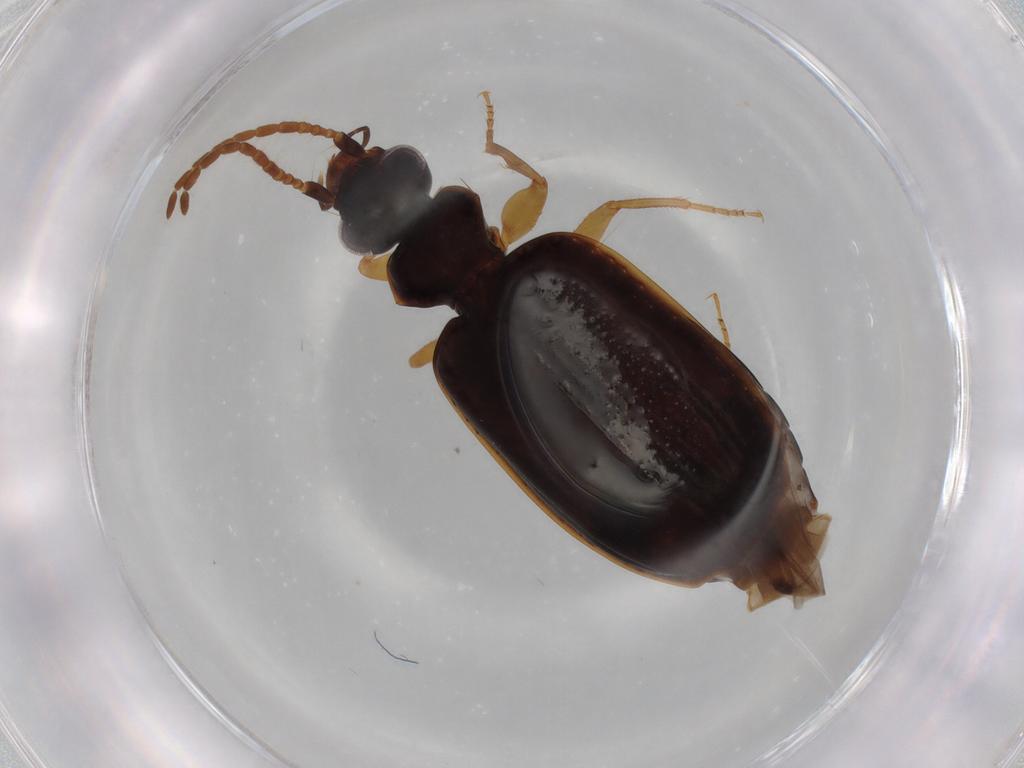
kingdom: Animalia
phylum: Arthropoda
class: Insecta
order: Coleoptera
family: Carabidae
